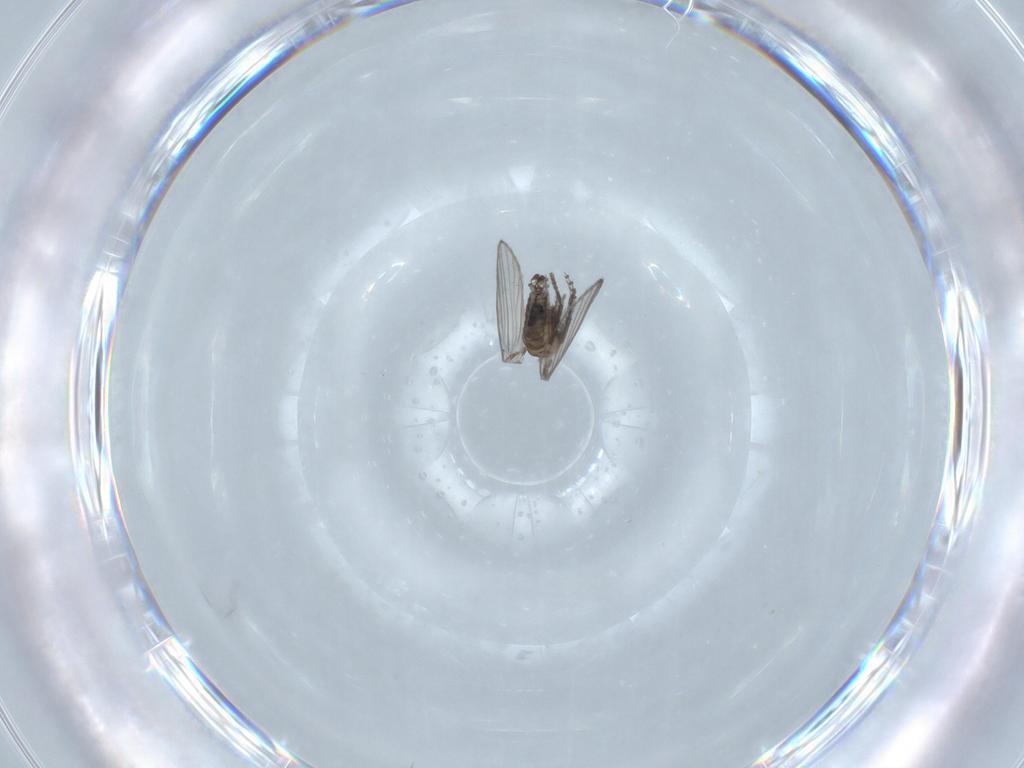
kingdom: Animalia
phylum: Arthropoda
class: Insecta
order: Diptera
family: Psychodidae
